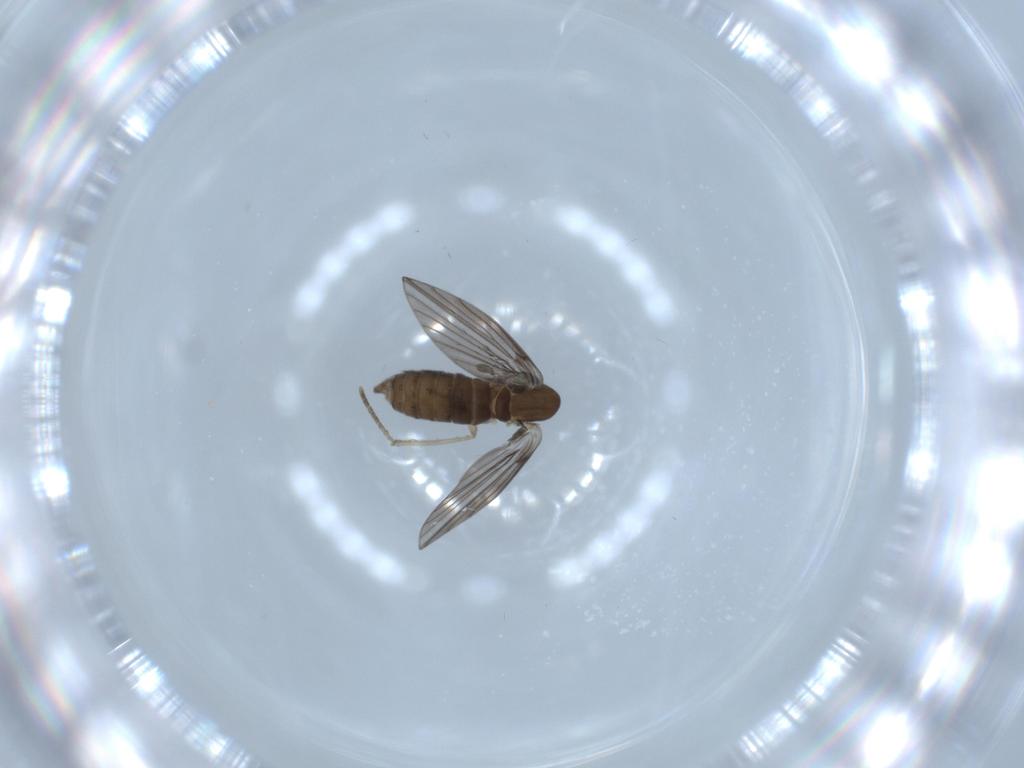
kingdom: Animalia
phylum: Arthropoda
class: Insecta
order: Diptera
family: Psychodidae
